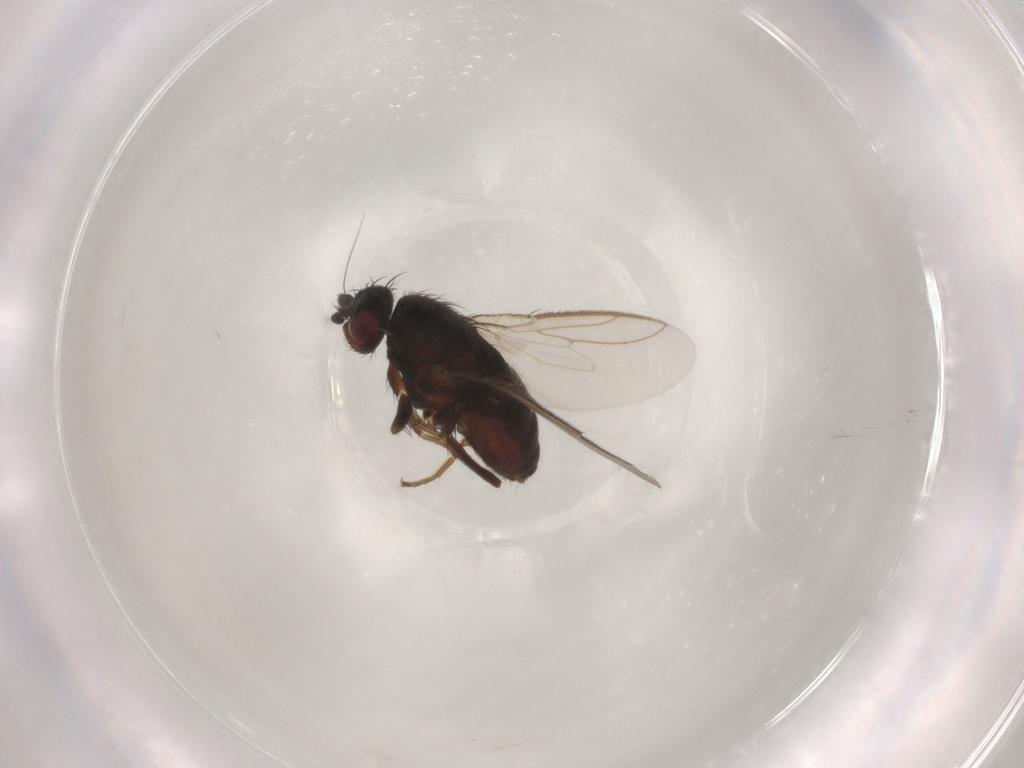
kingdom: Animalia
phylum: Arthropoda
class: Insecta
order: Diptera
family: Sphaeroceridae
